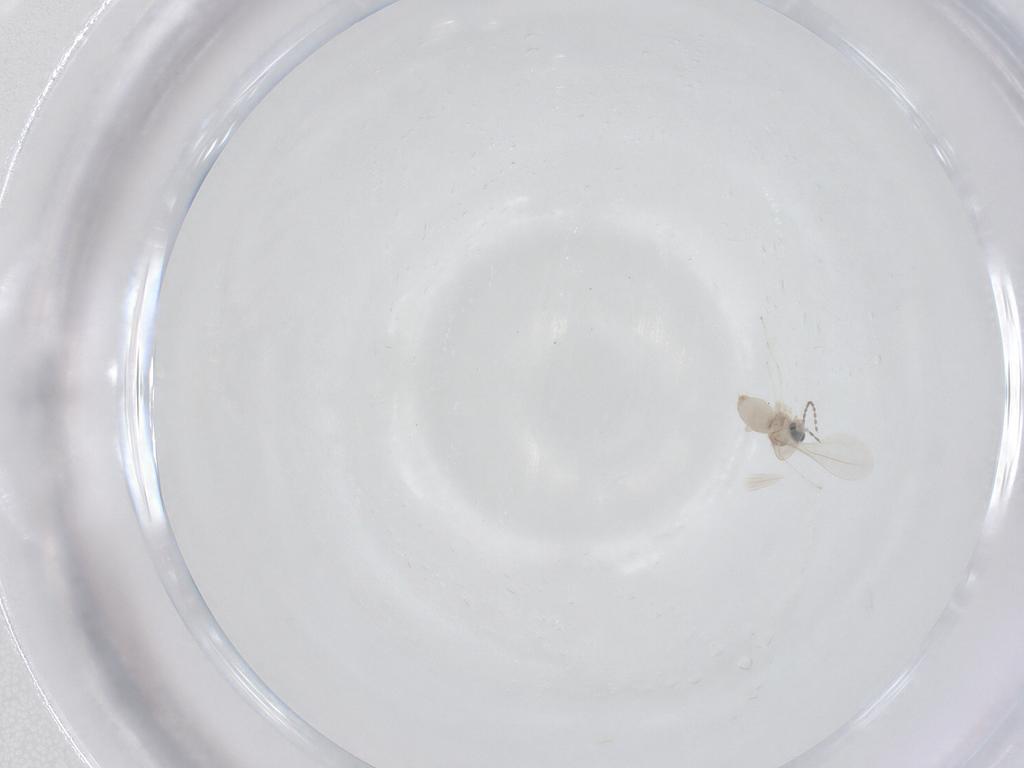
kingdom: Animalia
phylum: Arthropoda
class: Insecta
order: Diptera
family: Cecidomyiidae
